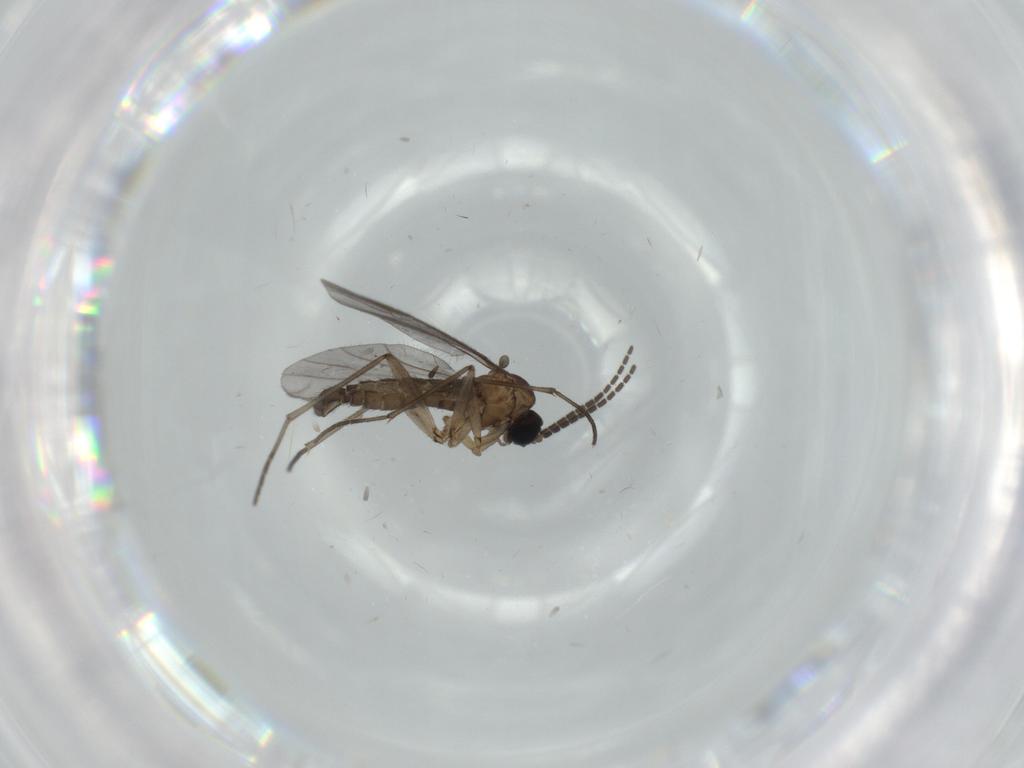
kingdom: Animalia
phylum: Arthropoda
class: Insecta
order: Diptera
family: Sciaridae
